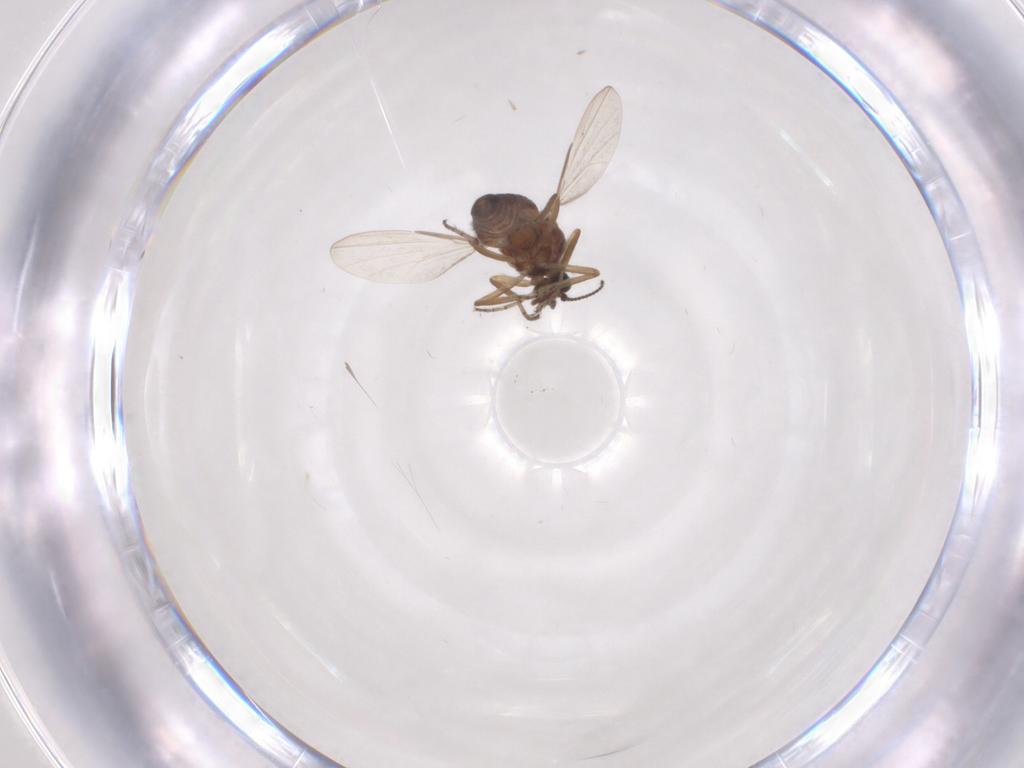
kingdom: Animalia
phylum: Arthropoda
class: Insecta
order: Diptera
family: Ceratopogonidae
